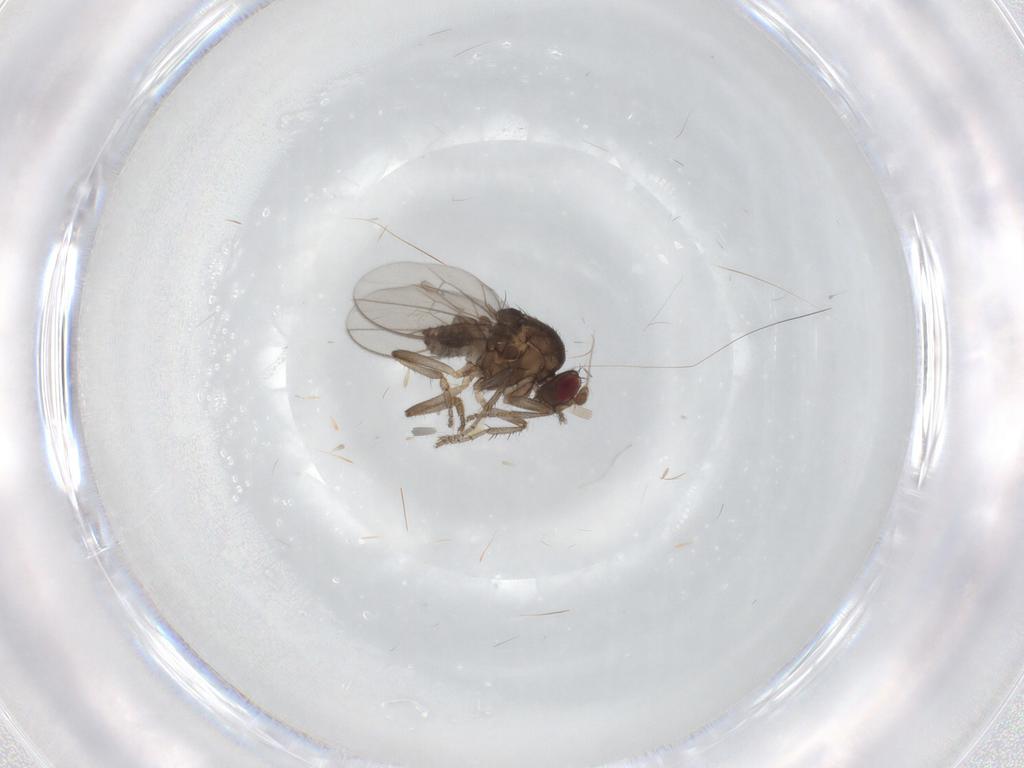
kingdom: Animalia
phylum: Arthropoda
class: Insecta
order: Diptera
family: Sphaeroceridae
